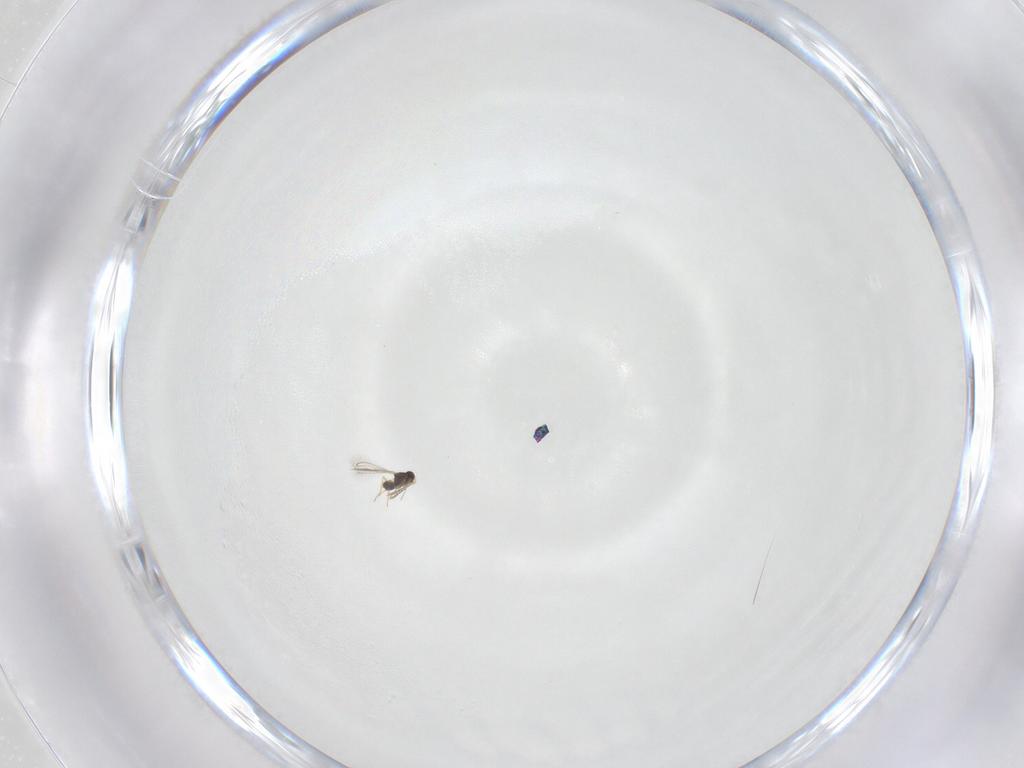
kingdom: Animalia
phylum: Arthropoda
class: Insecta
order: Hymenoptera
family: Mymaridae
